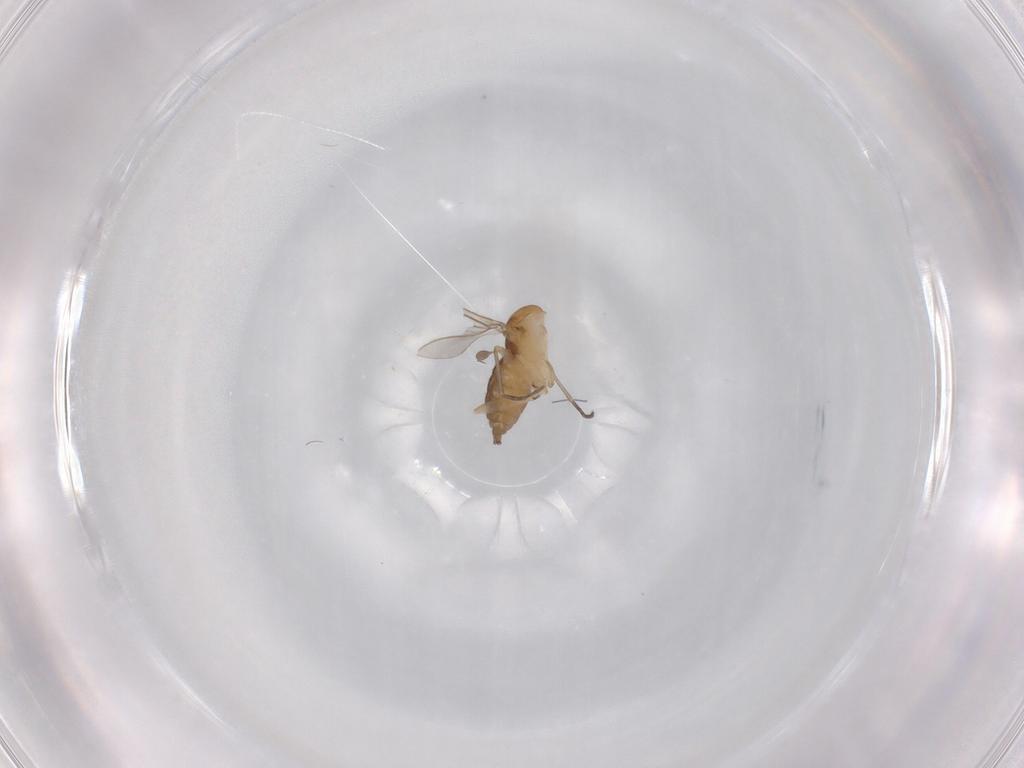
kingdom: Animalia
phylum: Arthropoda
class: Insecta
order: Diptera
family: Sciaridae
